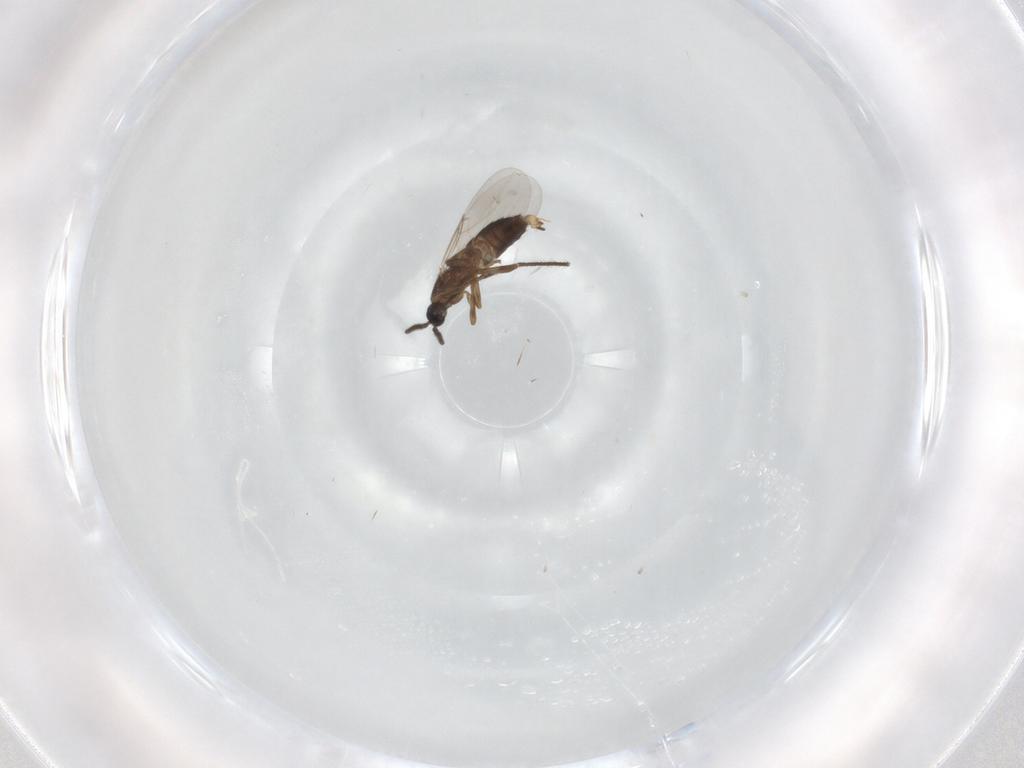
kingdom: Animalia
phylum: Arthropoda
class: Insecta
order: Diptera
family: Scatopsidae
